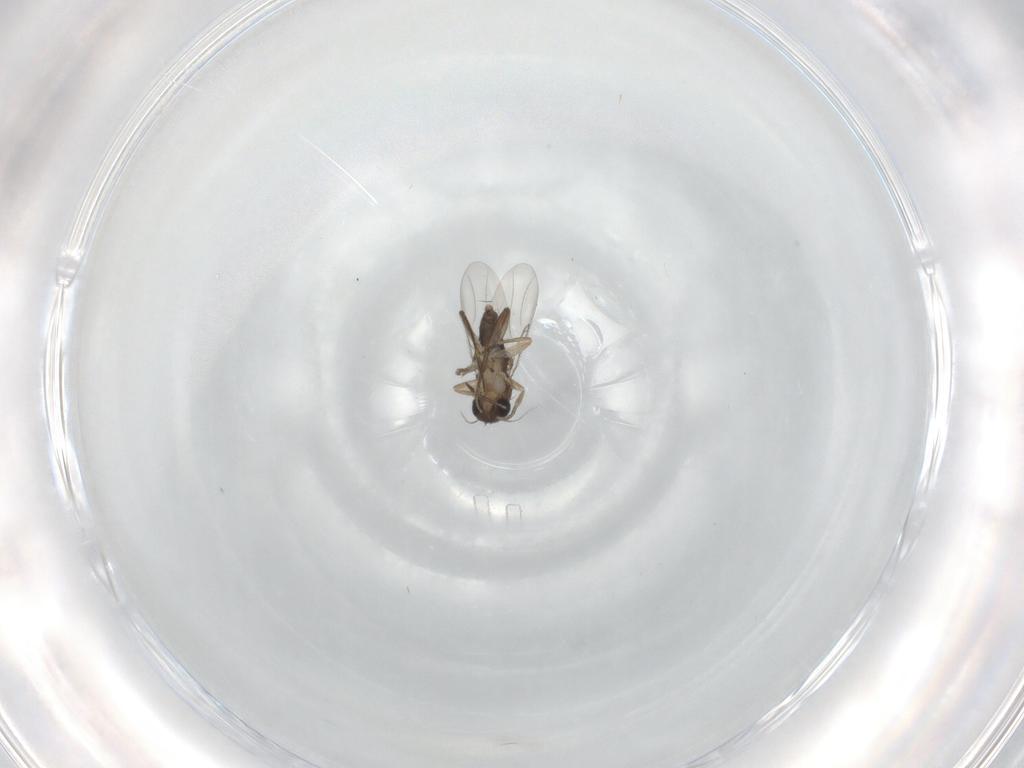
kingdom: Animalia
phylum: Arthropoda
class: Insecta
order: Diptera
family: Phoridae
